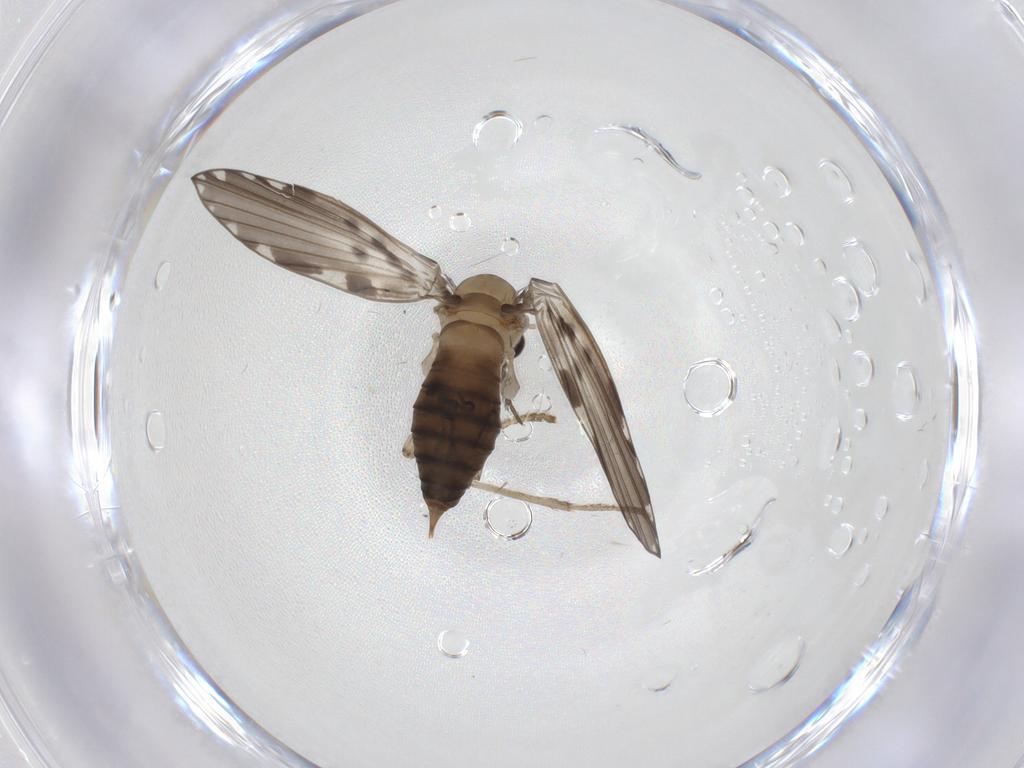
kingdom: Animalia
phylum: Arthropoda
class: Insecta
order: Diptera
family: Psychodidae
